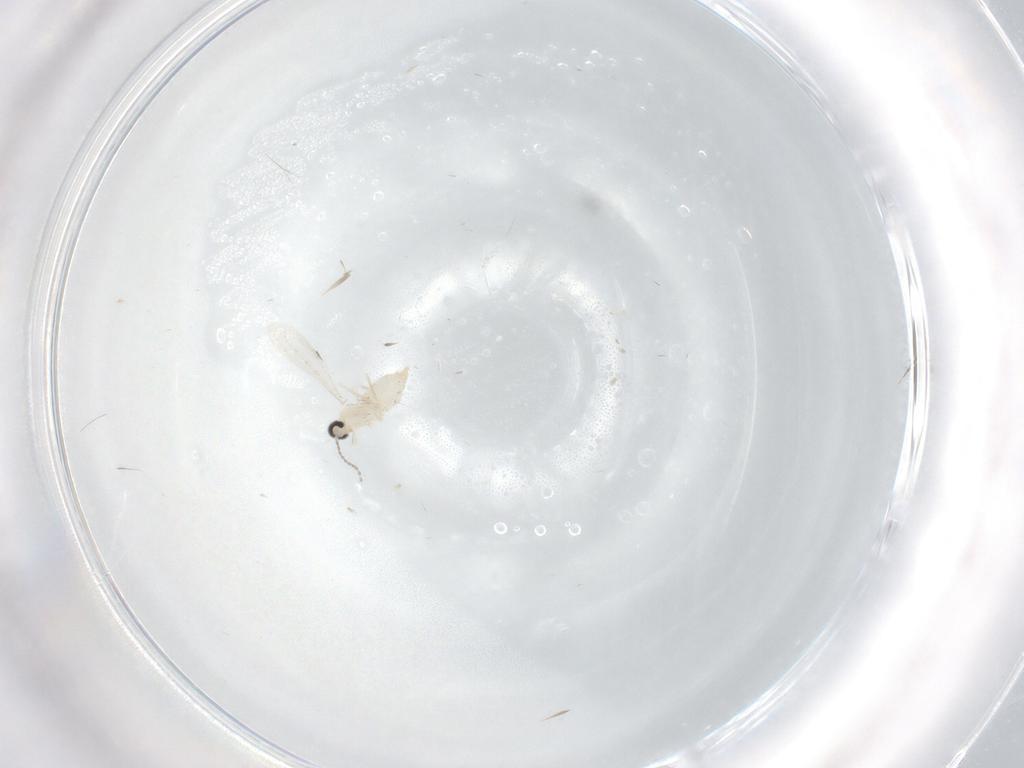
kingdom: Animalia
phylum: Arthropoda
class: Insecta
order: Diptera
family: Cecidomyiidae
